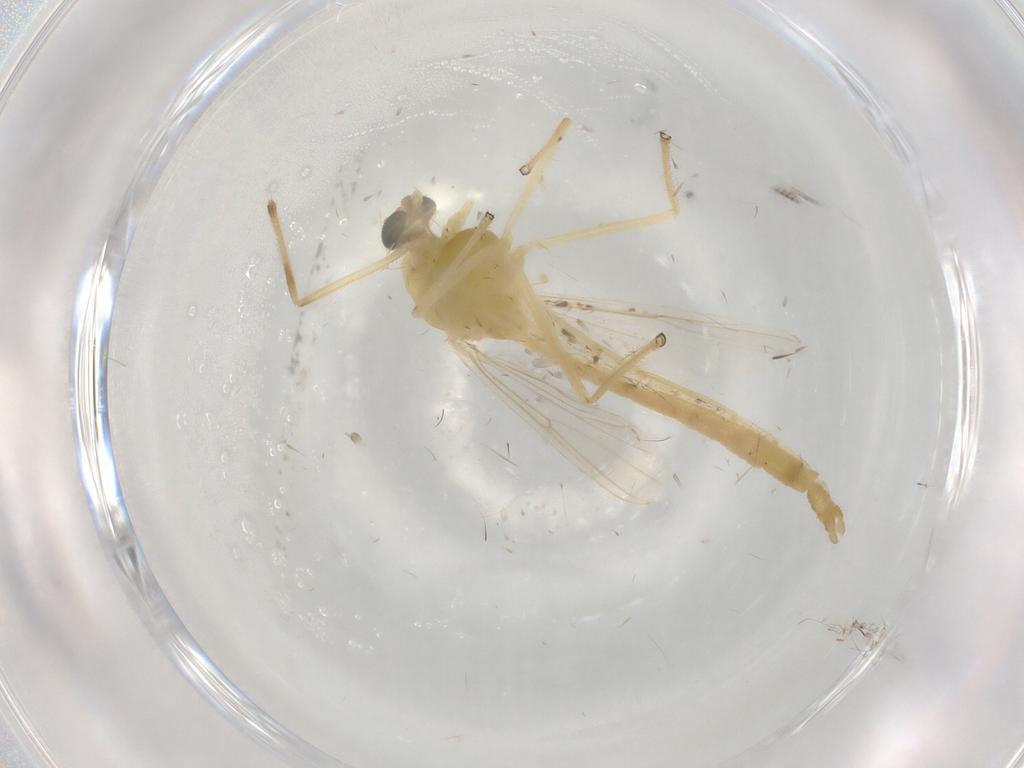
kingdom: Animalia
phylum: Arthropoda
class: Insecta
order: Diptera
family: Chironomidae
